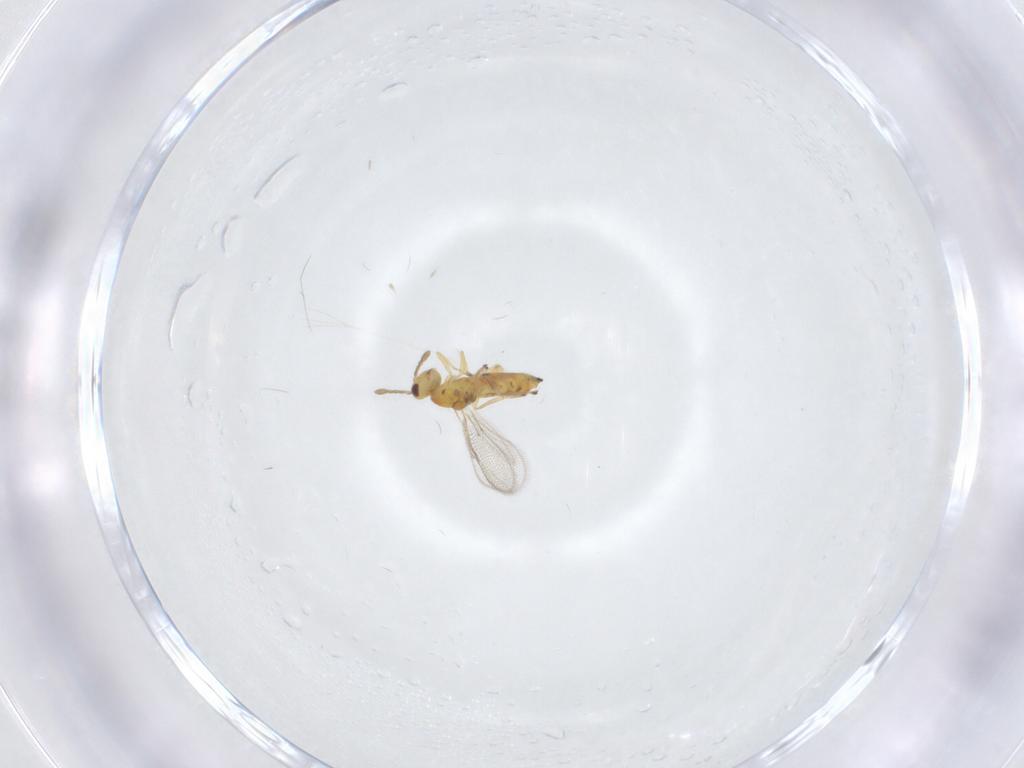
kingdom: Animalia
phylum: Arthropoda
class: Insecta
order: Hymenoptera
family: Eulophidae
